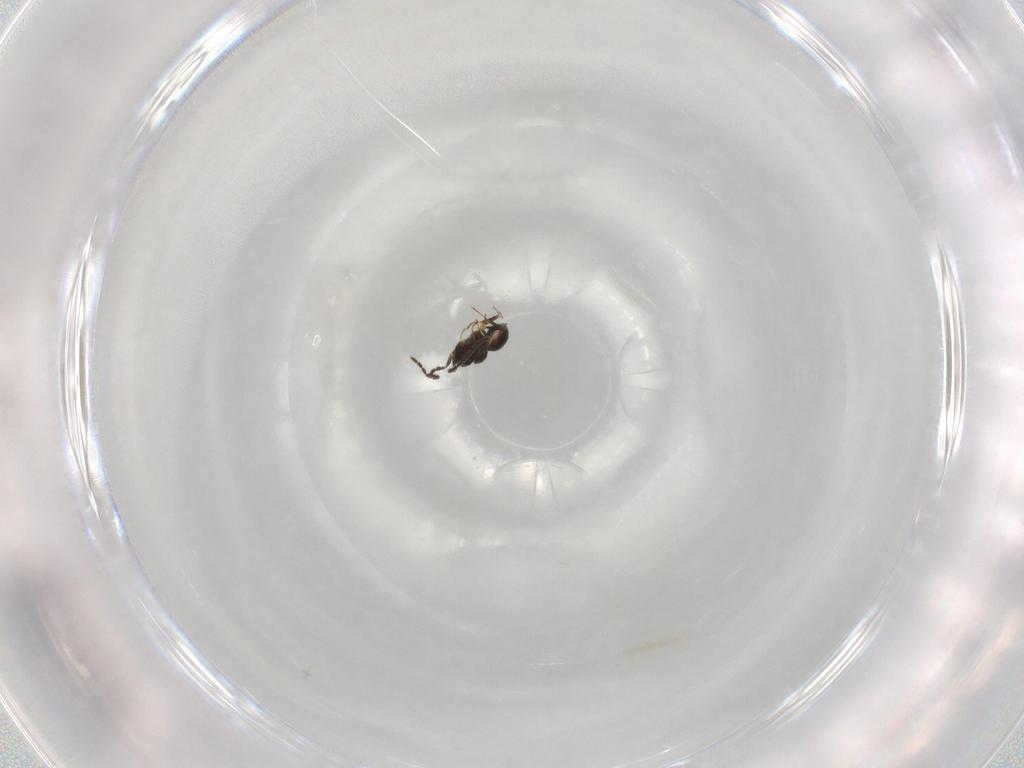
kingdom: Animalia
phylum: Arthropoda
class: Insecta
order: Hymenoptera
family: Scelionidae
